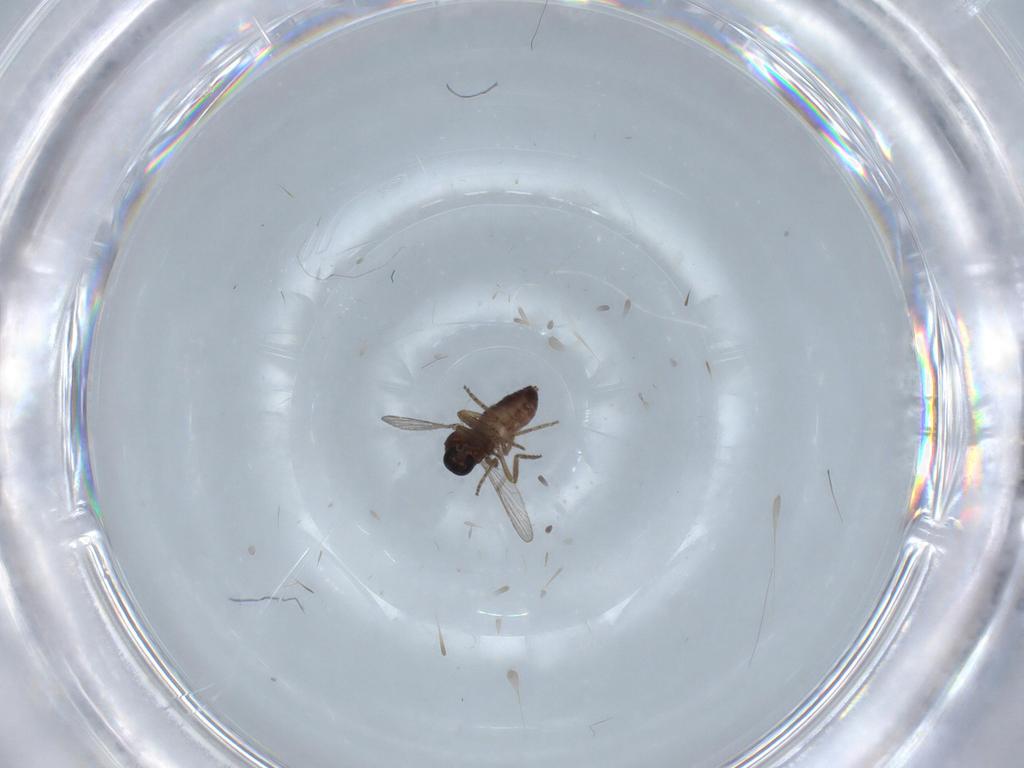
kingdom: Animalia
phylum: Arthropoda
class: Insecta
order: Diptera
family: Ceratopogonidae
